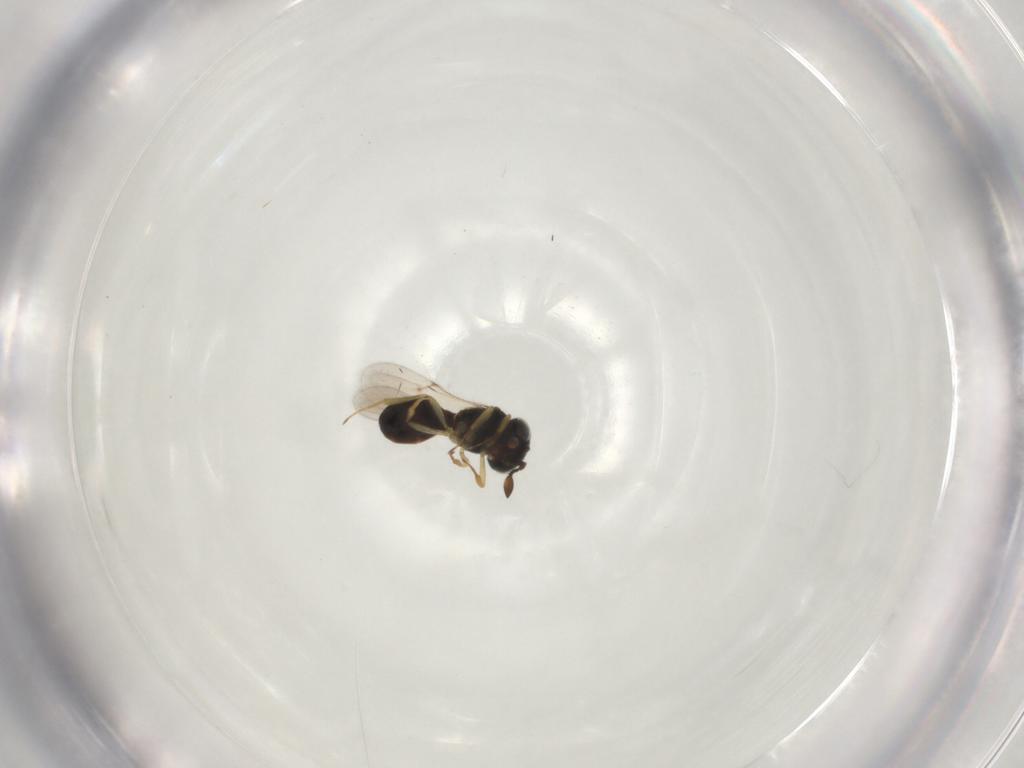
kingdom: Animalia
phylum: Arthropoda
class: Insecta
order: Hymenoptera
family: Scelionidae
